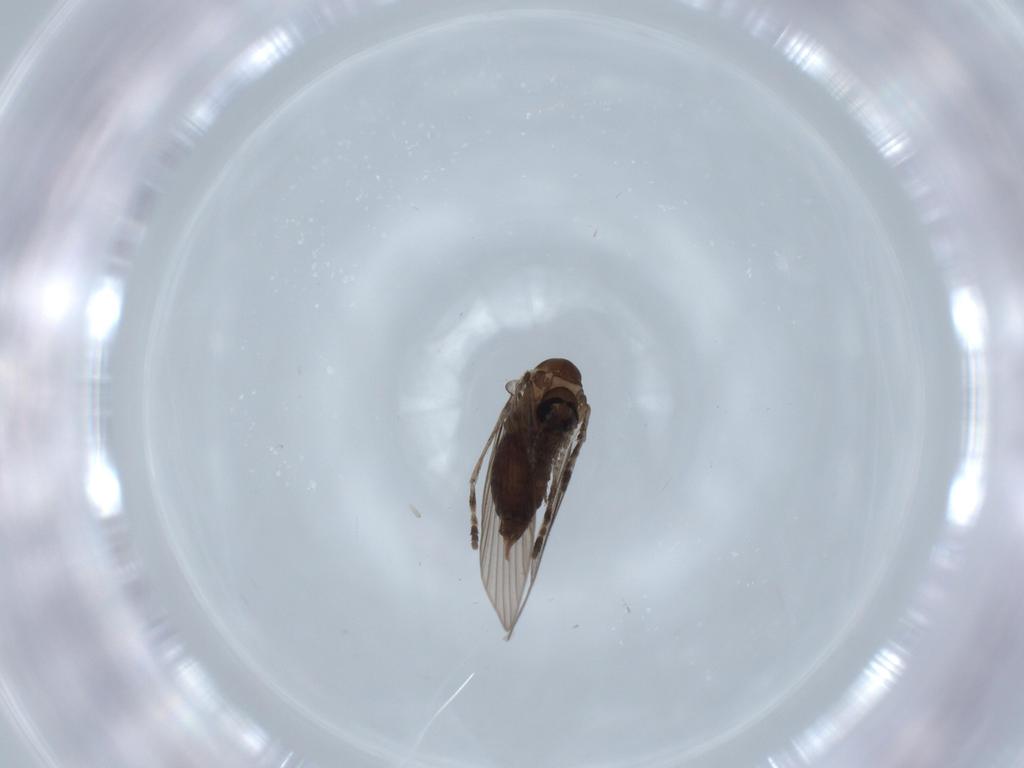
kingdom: Animalia
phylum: Arthropoda
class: Insecta
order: Diptera
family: Psychodidae
